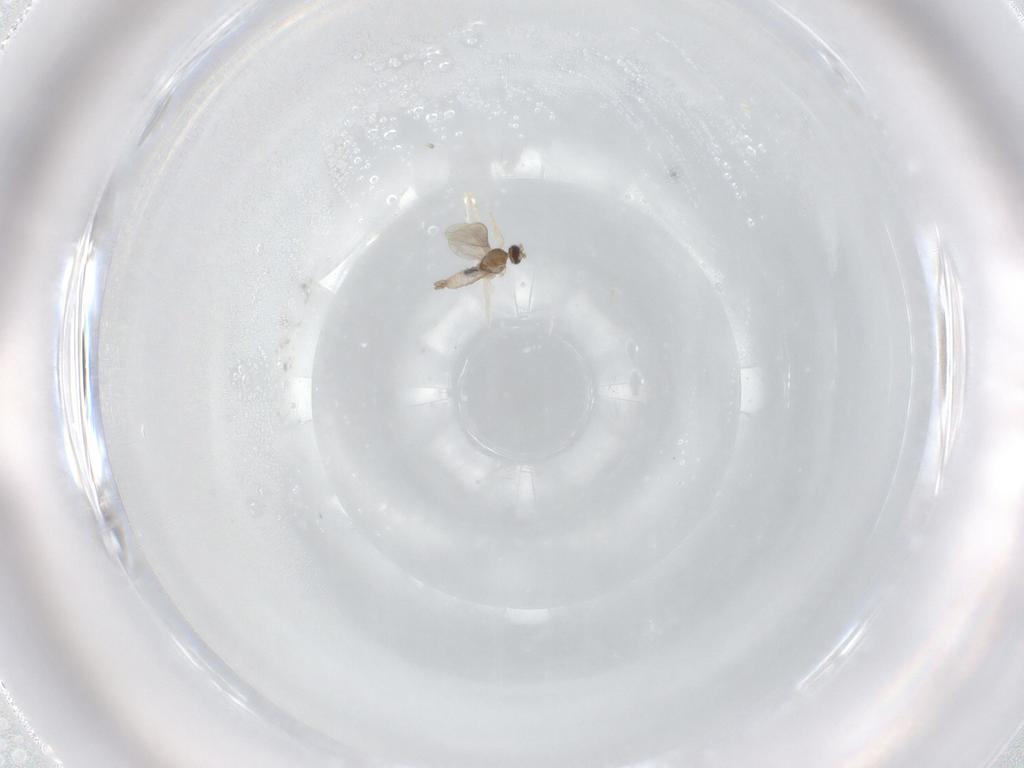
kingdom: Animalia
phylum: Arthropoda
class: Insecta
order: Diptera
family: Cecidomyiidae
